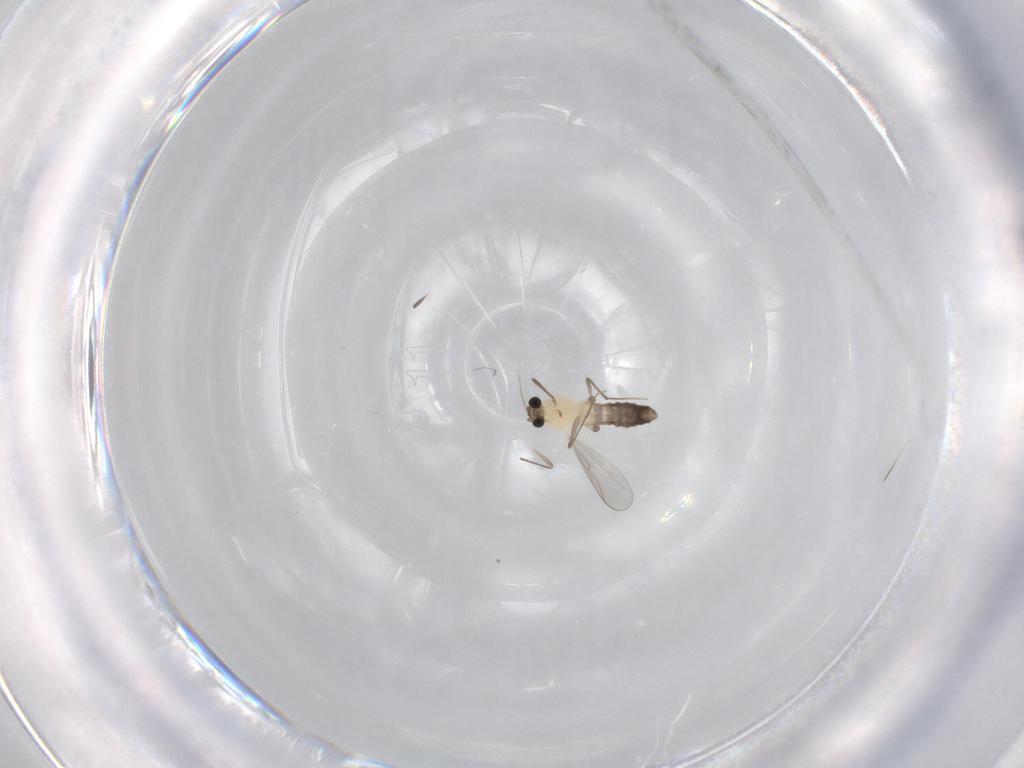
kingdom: Animalia
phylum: Arthropoda
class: Insecta
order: Diptera
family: Chironomidae
